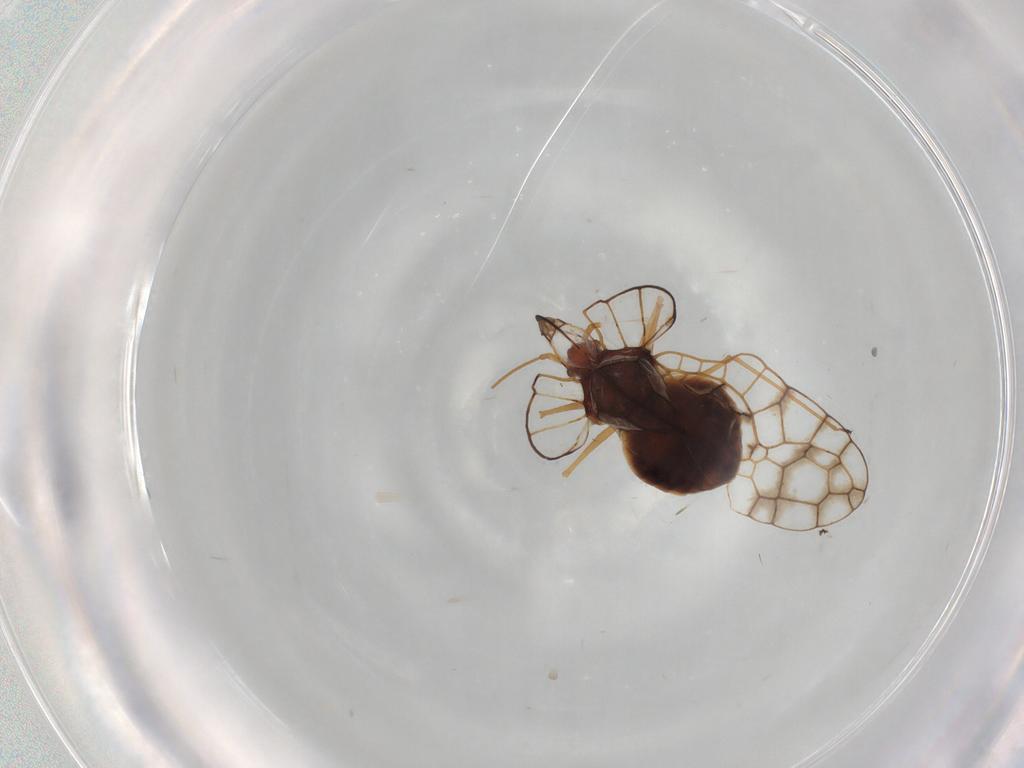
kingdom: Animalia
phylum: Arthropoda
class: Insecta
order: Hemiptera
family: Tingidae
